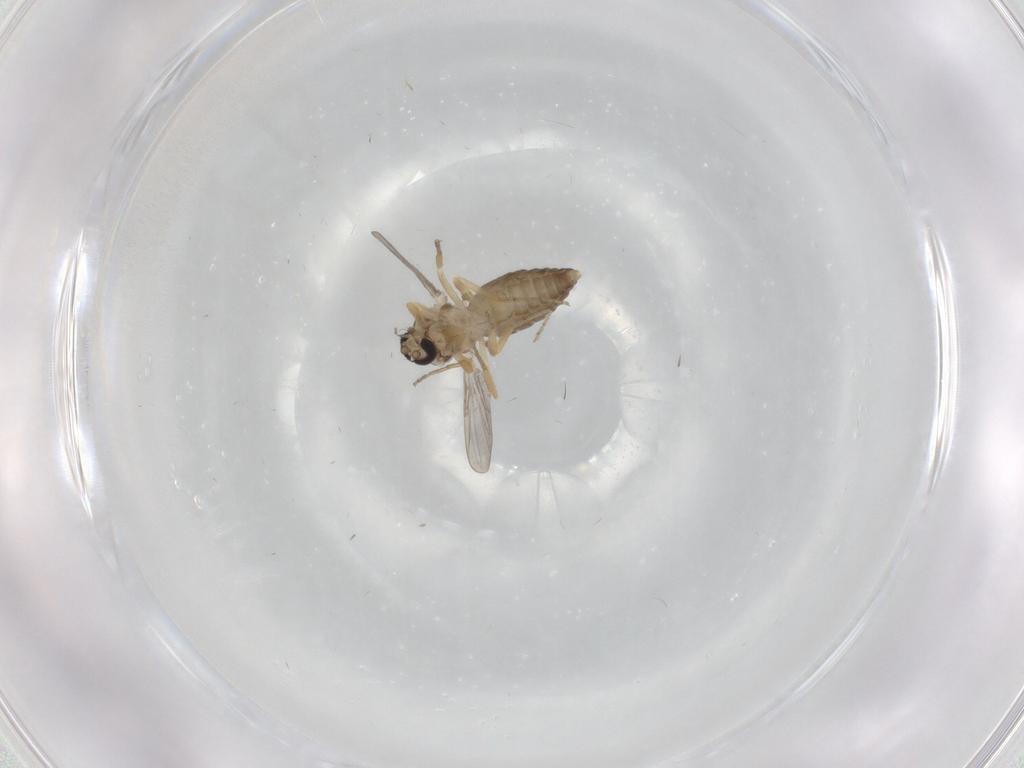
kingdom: Animalia
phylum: Arthropoda
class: Insecta
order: Diptera
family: Ceratopogonidae
